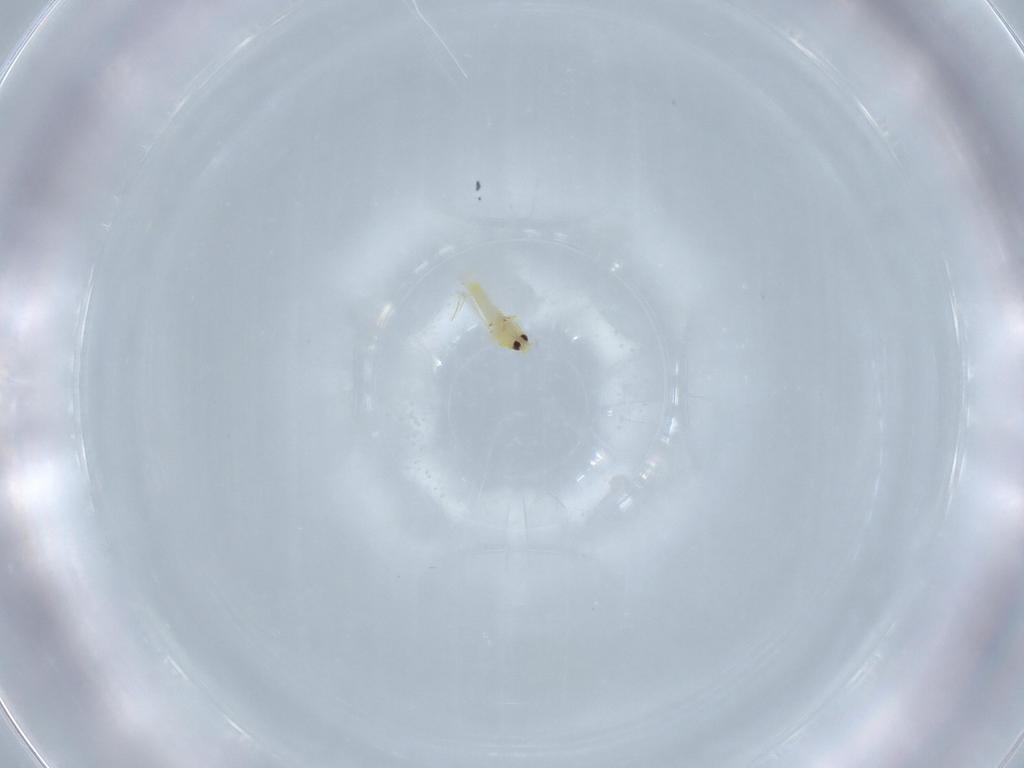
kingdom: Animalia
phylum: Arthropoda
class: Insecta
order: Hemiptera
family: Aleyrodidae
